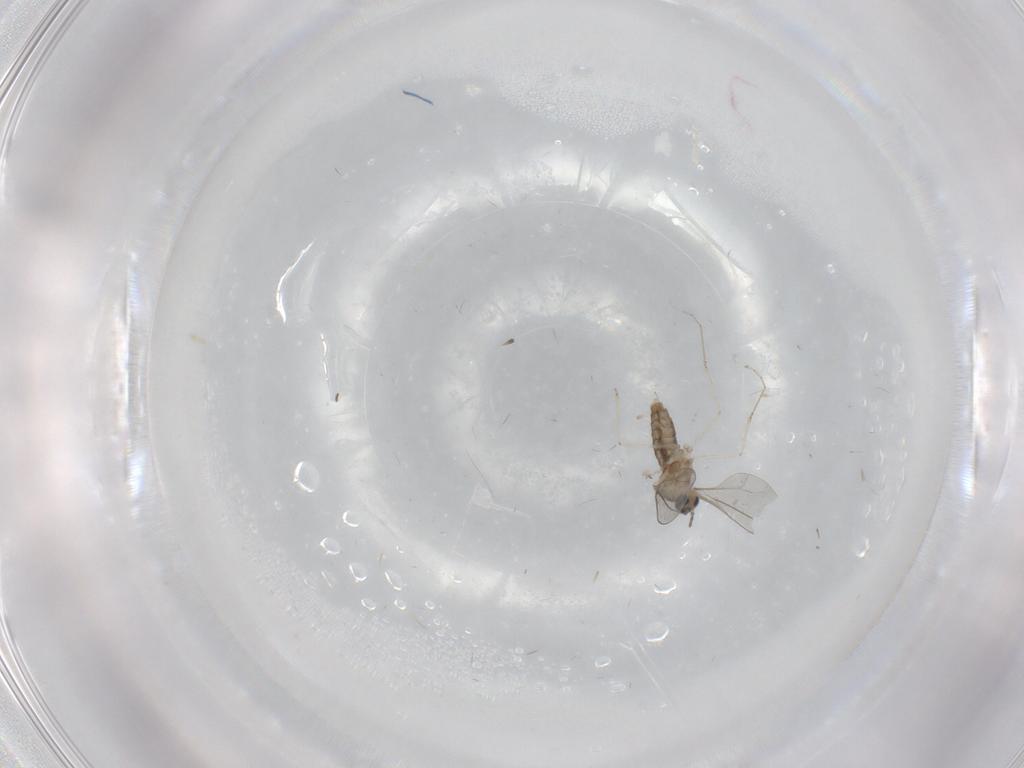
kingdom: Animalia
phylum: Arthropoda
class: Insecta
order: Diptera
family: Cecidomyiidae
